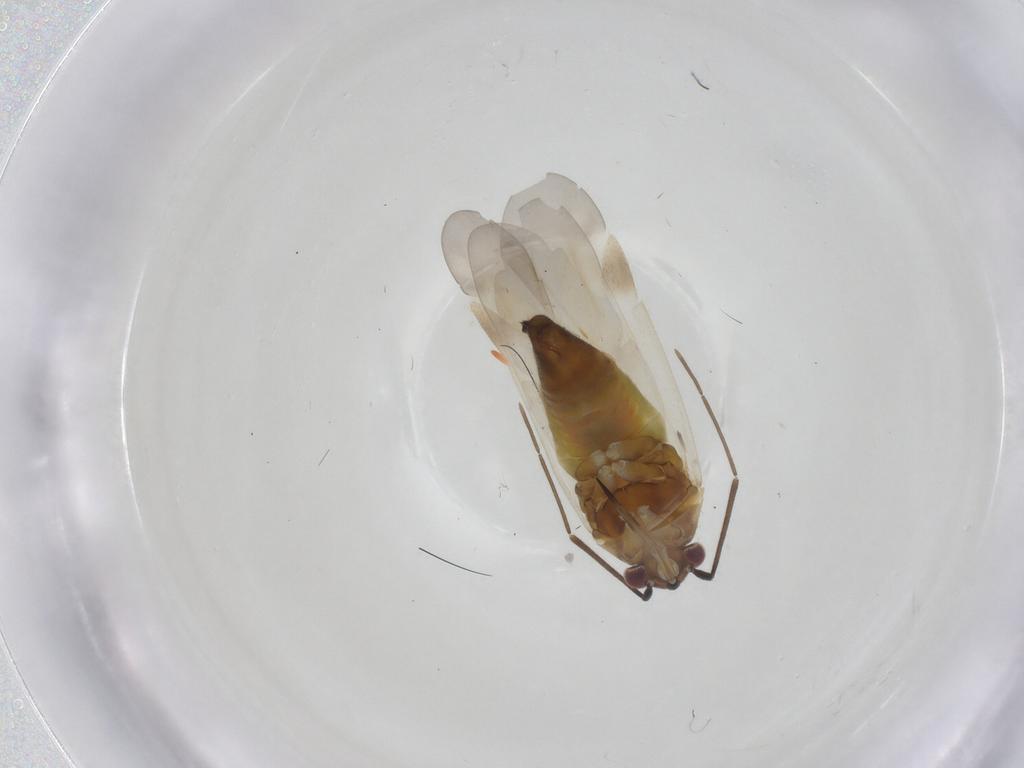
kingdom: Animalia
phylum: Arthropoda
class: Insecta
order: Hemiptera
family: Miridae
